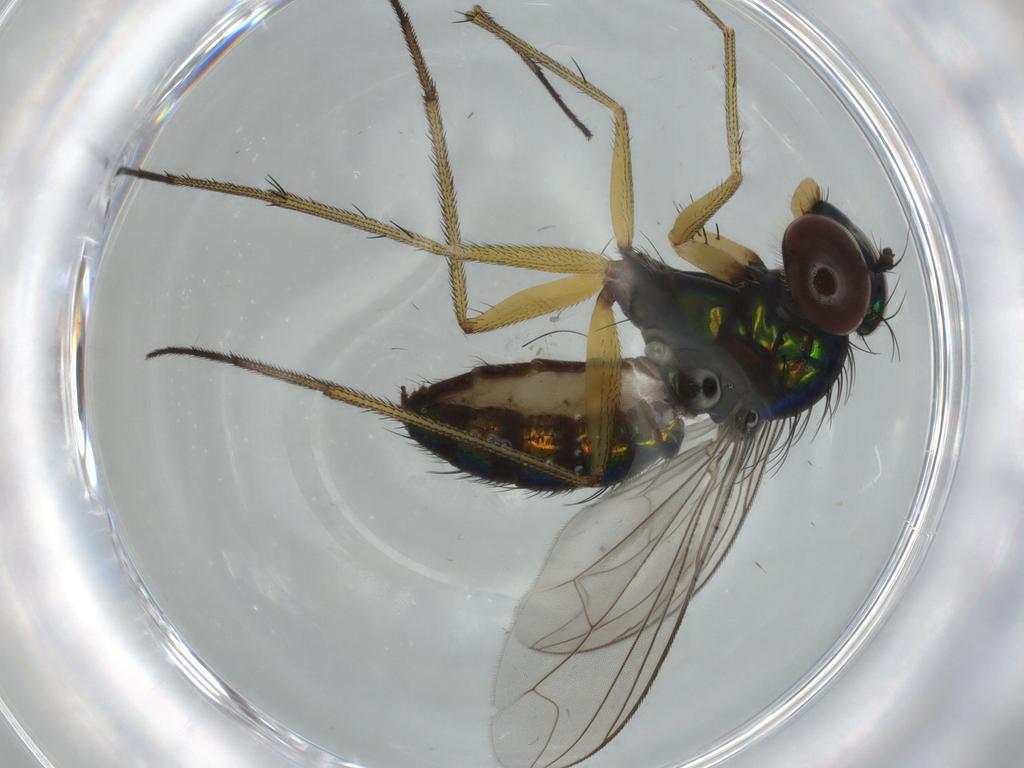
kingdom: Animalia
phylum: Arthropoda
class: Insecta
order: Diptera
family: Dolichopodidae
